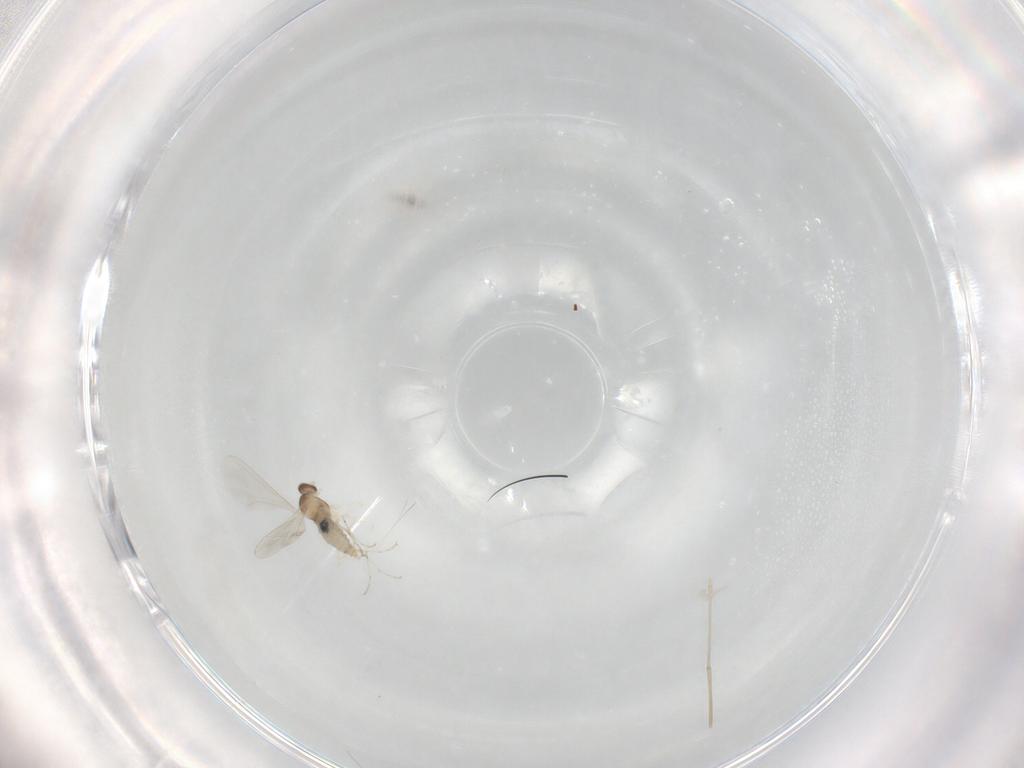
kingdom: Animalia
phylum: Arthropoda
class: Insecta
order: Diptera
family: Cecidomyiidae
